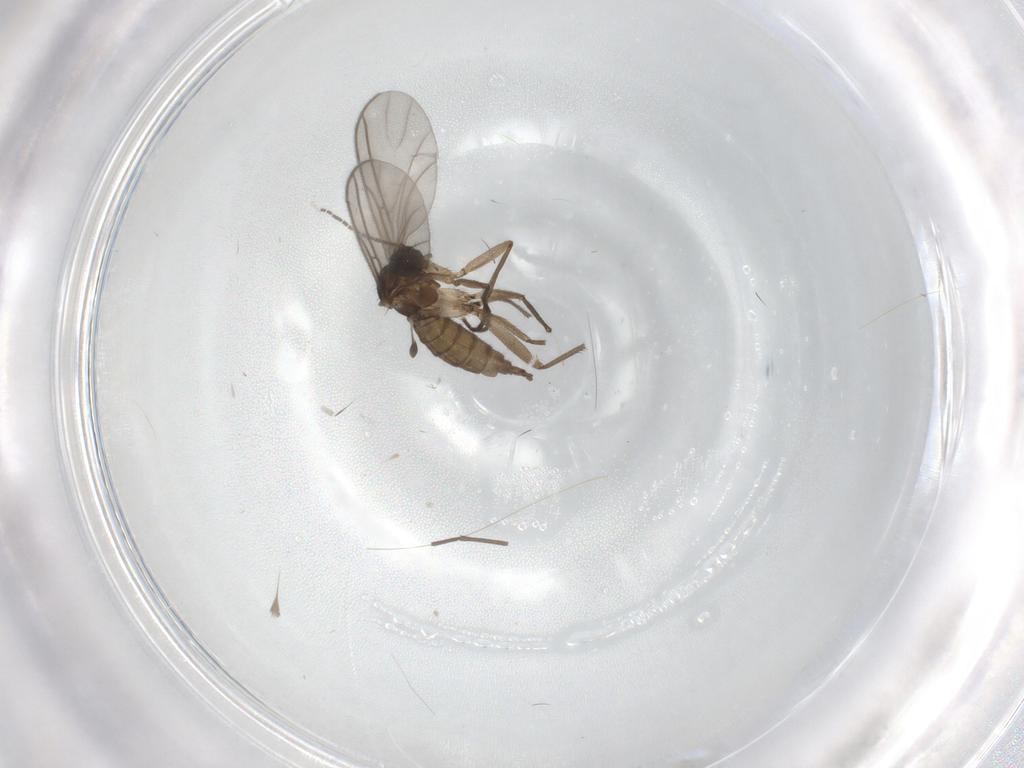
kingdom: Animalia
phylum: Arthropoda
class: Insecta
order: Diptera
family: Sciaridae
